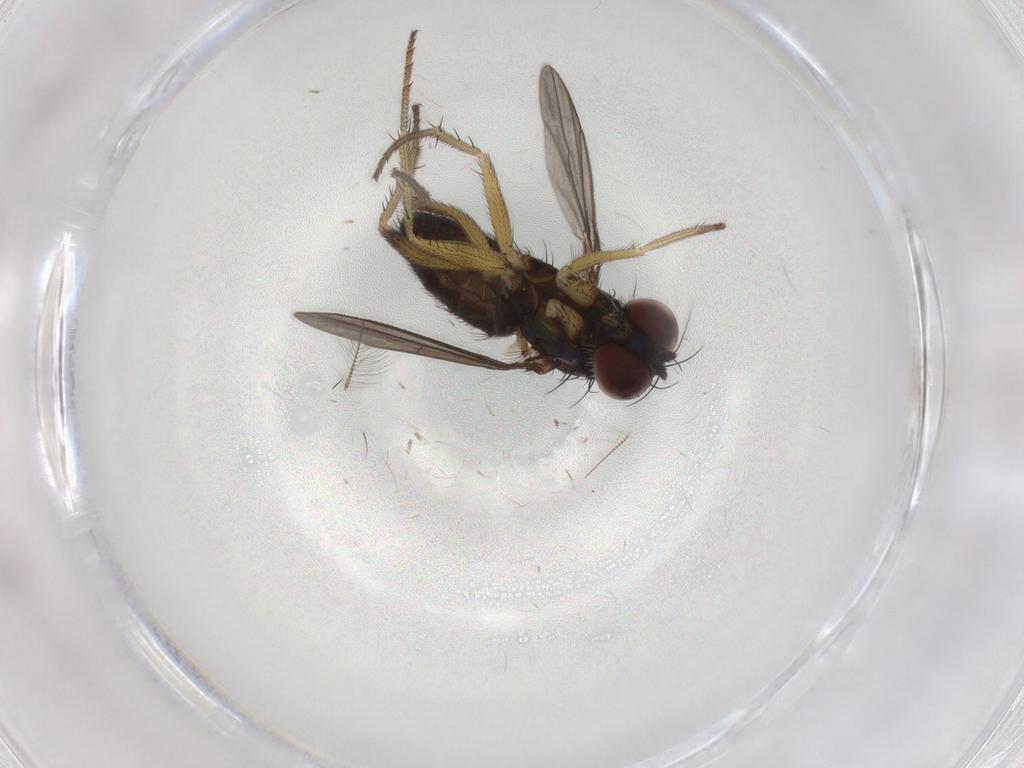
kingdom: Animalia
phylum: Arthropoda
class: Insecta
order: Diptera
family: Dolichopodidae
